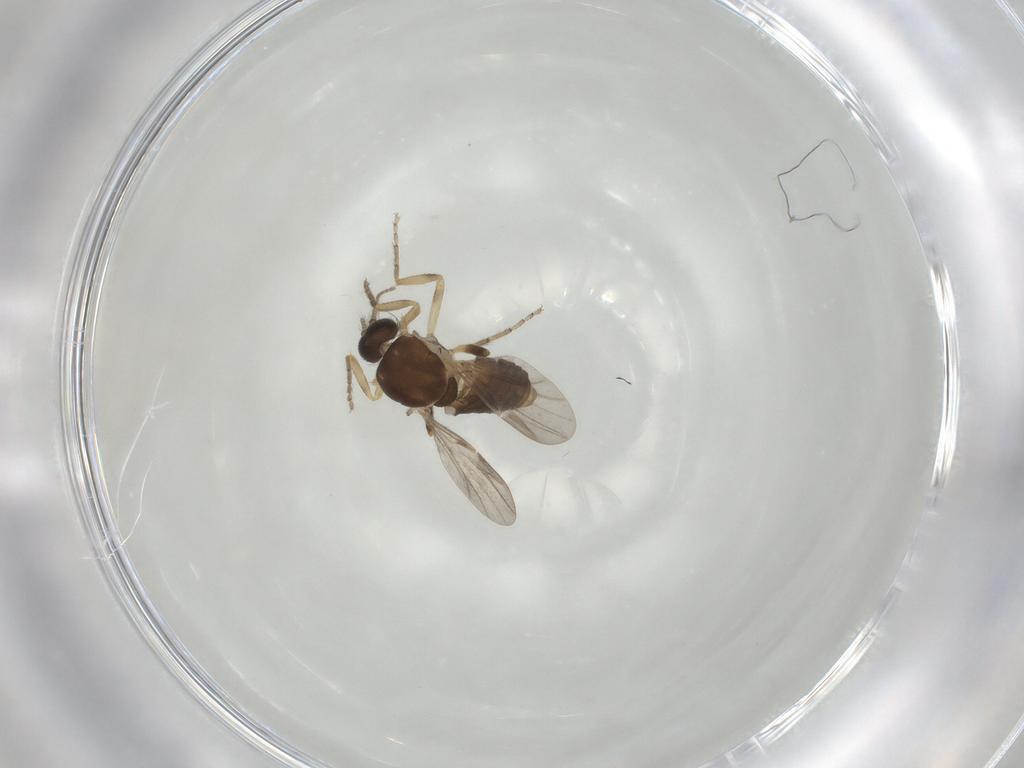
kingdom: Animalia
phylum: Arthropoda
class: Insecta
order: Diptera
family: Ceratopogonidae
